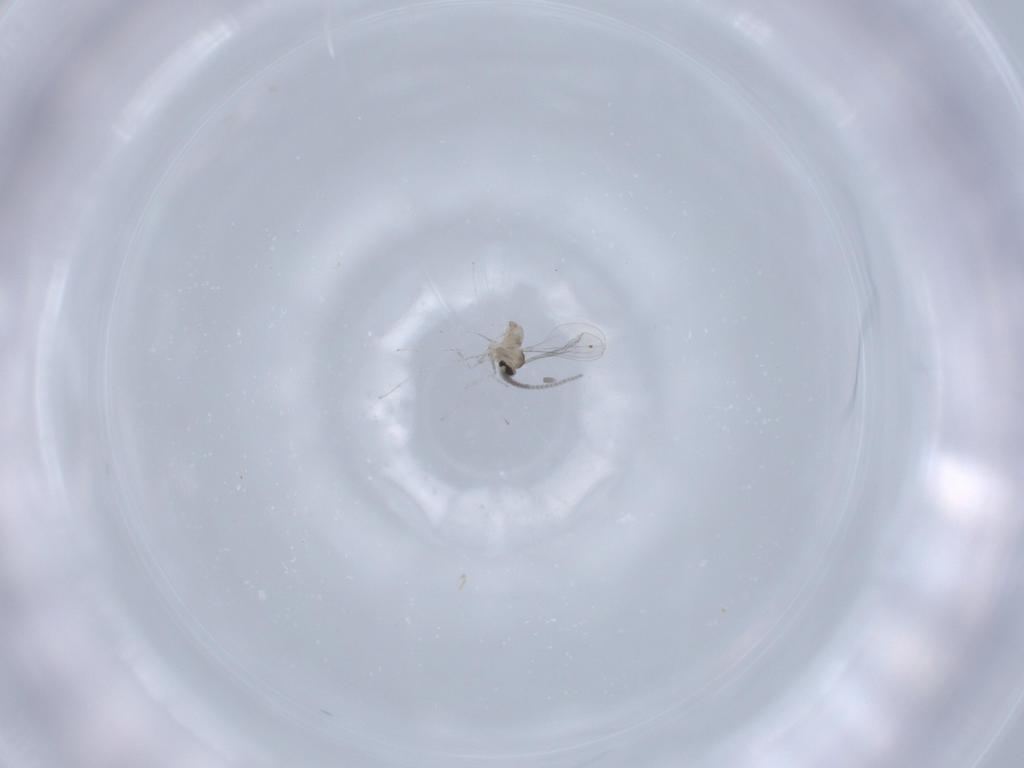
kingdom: Animalia
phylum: Arthropoda
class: Insecta
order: Diptera
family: Cecidomyiidae
